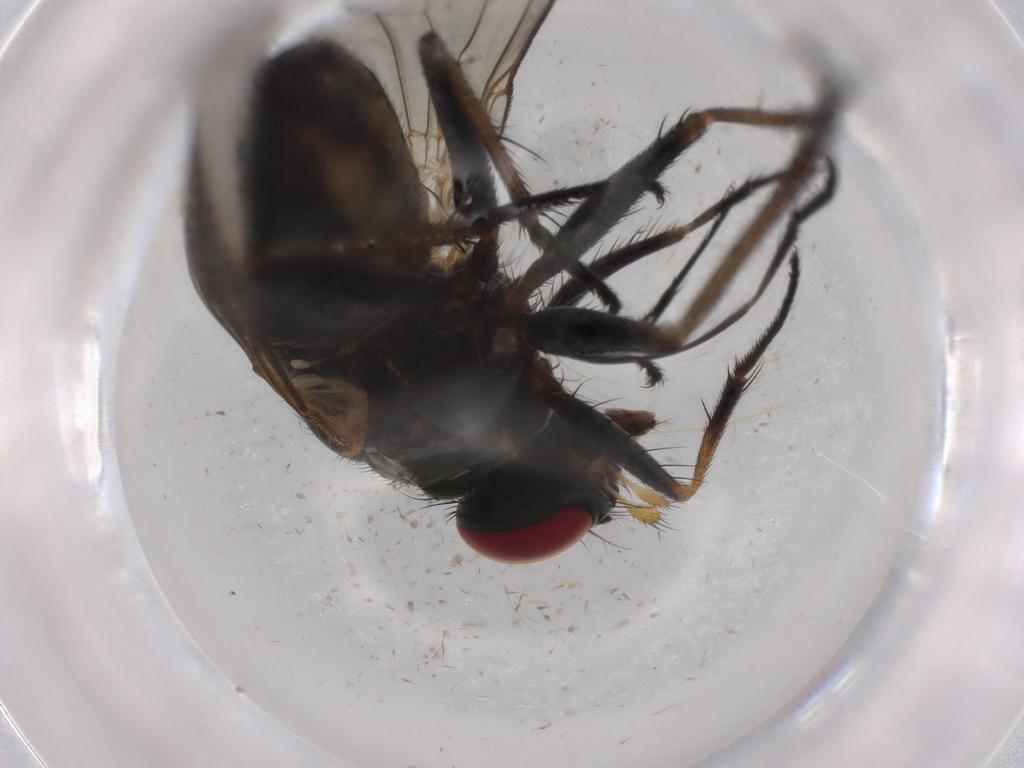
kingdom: Animalia
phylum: Arthropoda
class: Insecta
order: Diptera
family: Muscidae
